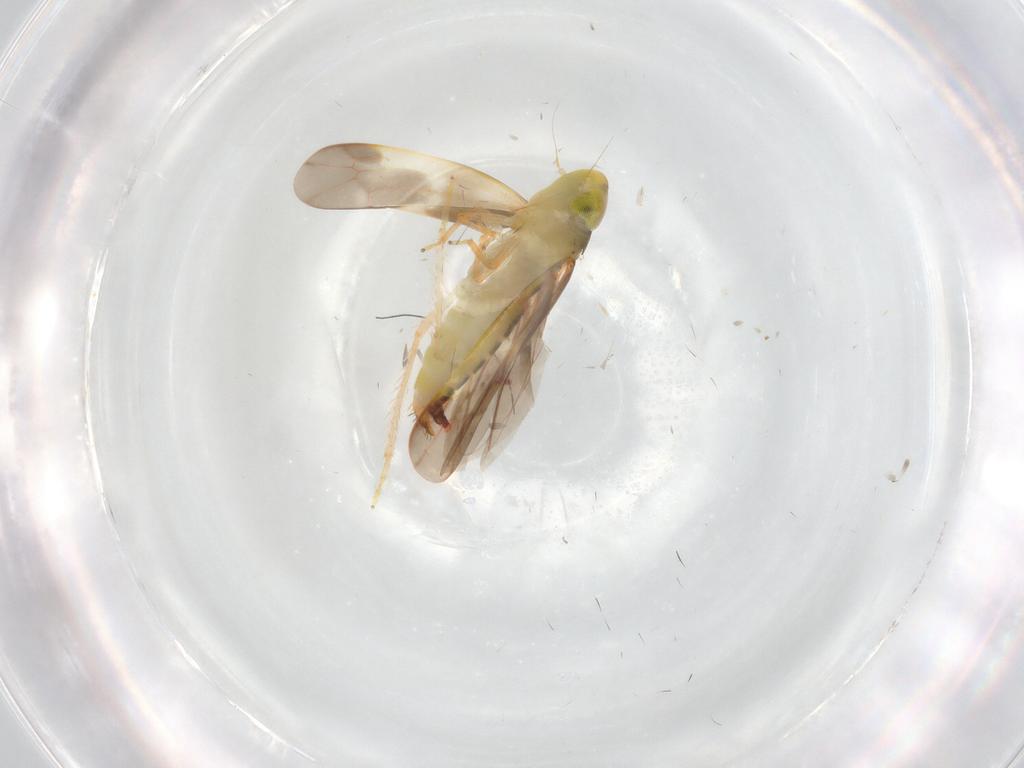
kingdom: Animalia
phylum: Arthropoda
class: Insecta
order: Hemiptera
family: Cicadellidae
